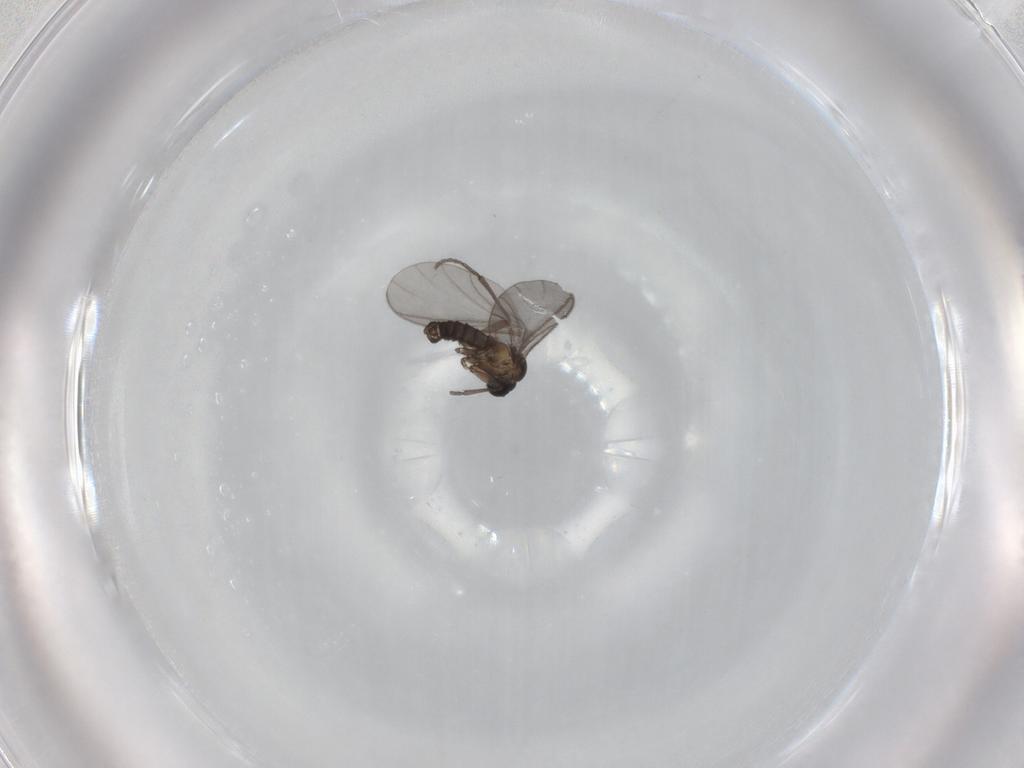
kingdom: Animalia
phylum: Arthropoda
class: Insecta
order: Diptera
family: Sciaridae
